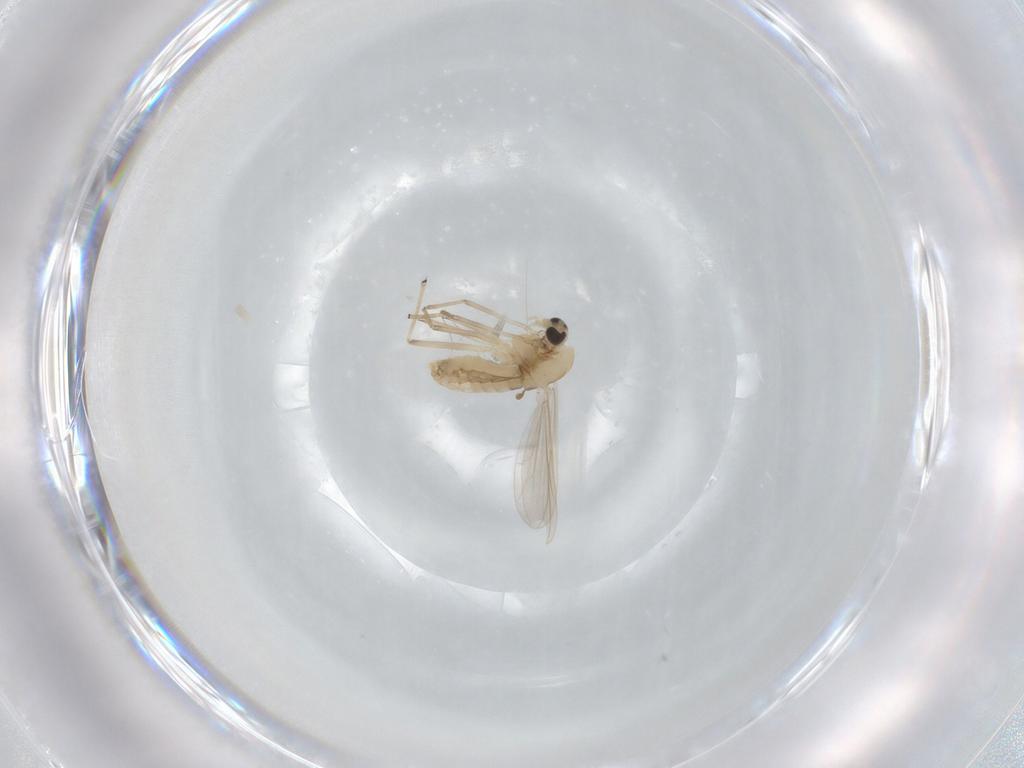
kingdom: Animalia
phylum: Arthropoda
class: Insecta
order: Diptera
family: Chironomidae
